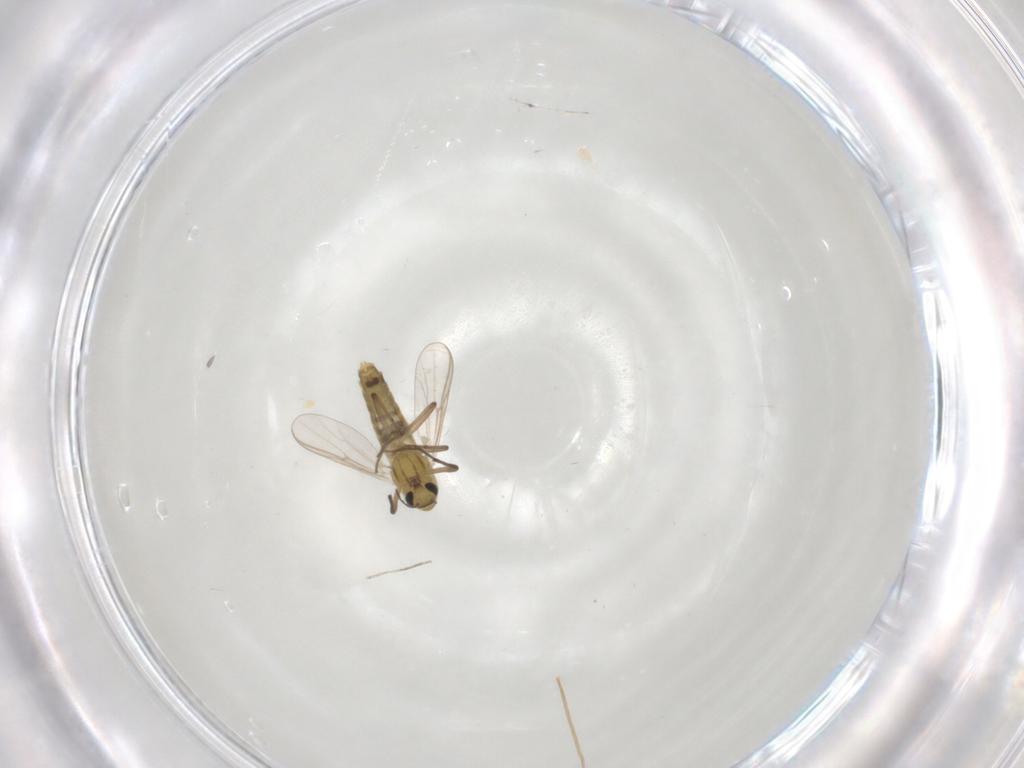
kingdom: Animalia
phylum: Arthropoda
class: Insecta
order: Diptera
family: Cecidomyiidae
